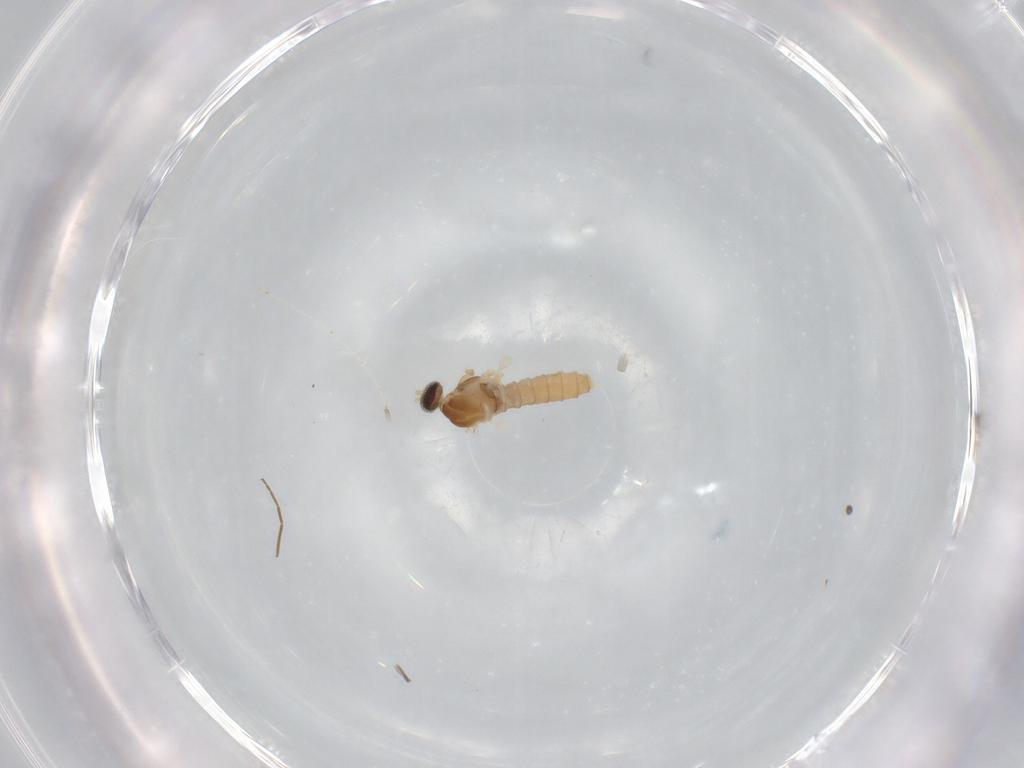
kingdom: Animalia
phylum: Arthropoda
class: Insecta
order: Diptera
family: Cecidomyiidae
